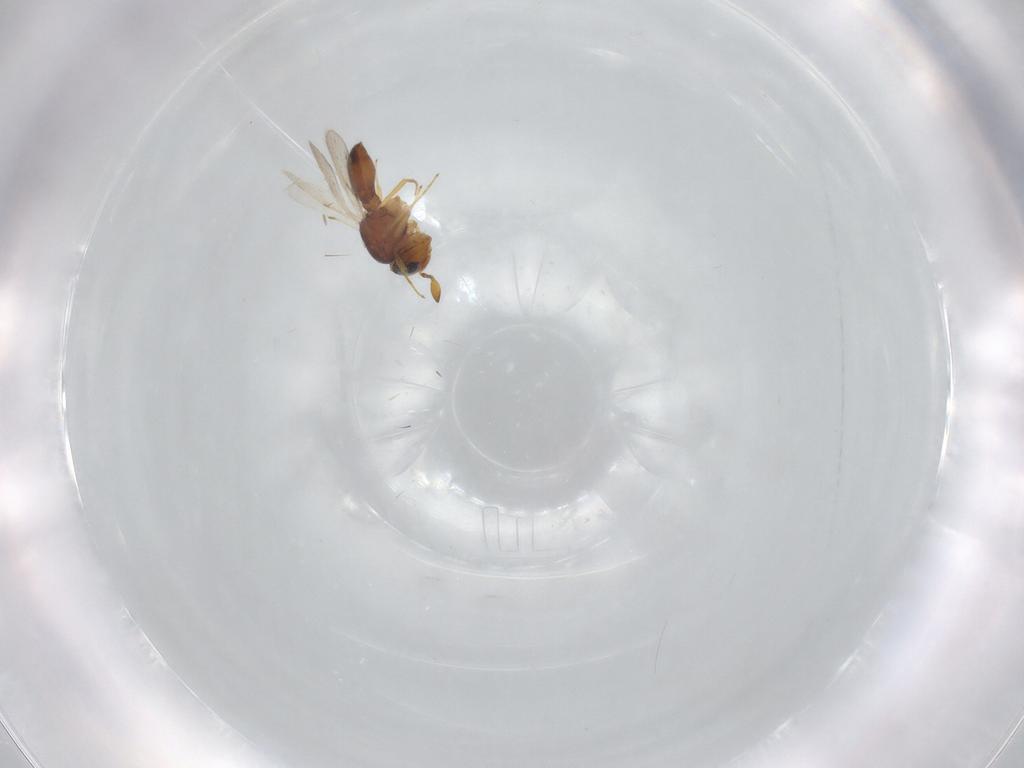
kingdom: Animalia
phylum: Arthropoda
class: Insecta
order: Hymenoptera
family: Scelionidae
